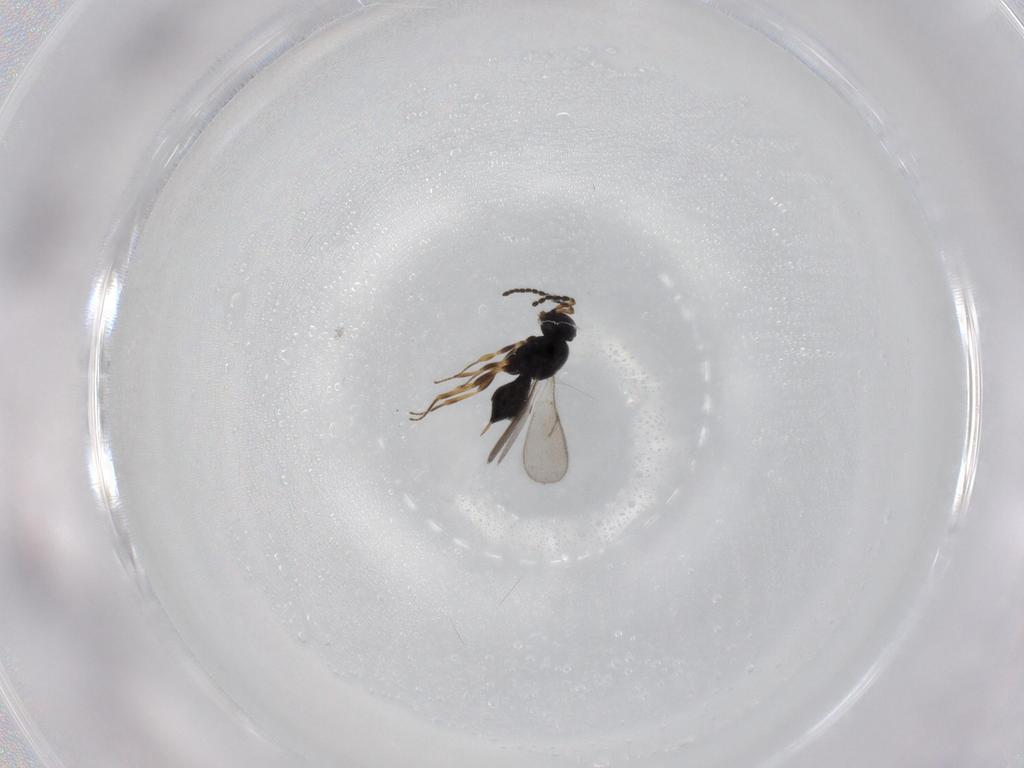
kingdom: Animalia
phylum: Arthropoda
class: Insecta
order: Hymenoptera
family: Scelionidae
